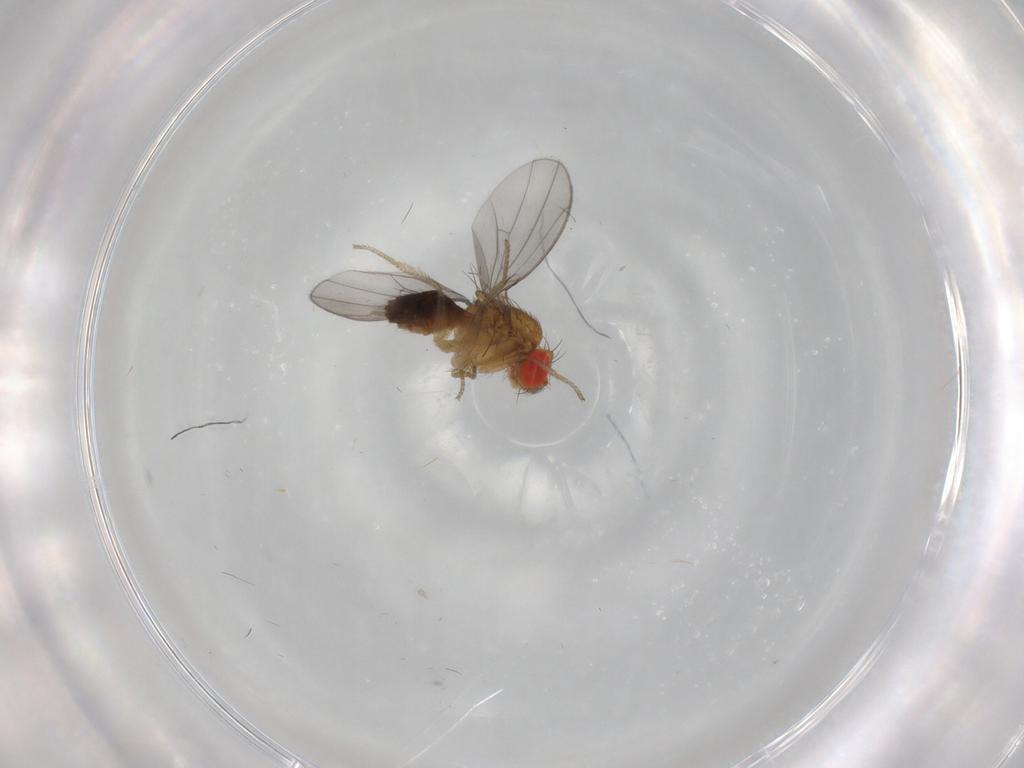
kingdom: Animalia
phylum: Arthropoda
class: Insecta
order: Diptera
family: Drosophilidae
